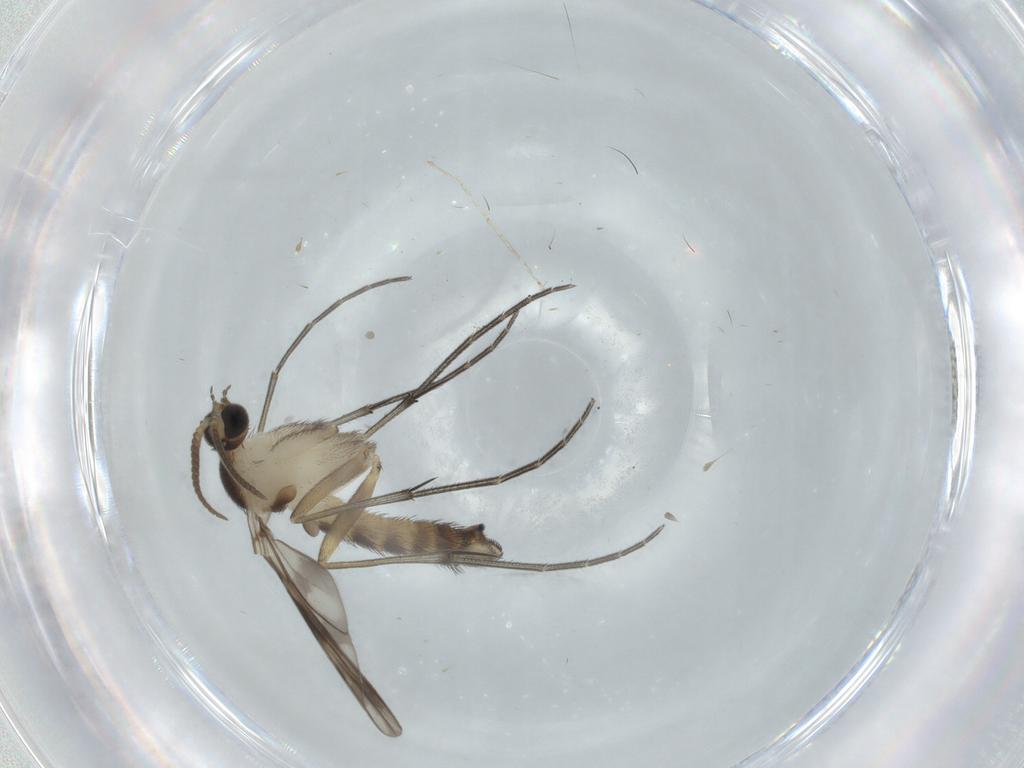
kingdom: Animalia
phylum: Arthropoda
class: Insecta
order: Diptera
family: Keroplatidae
